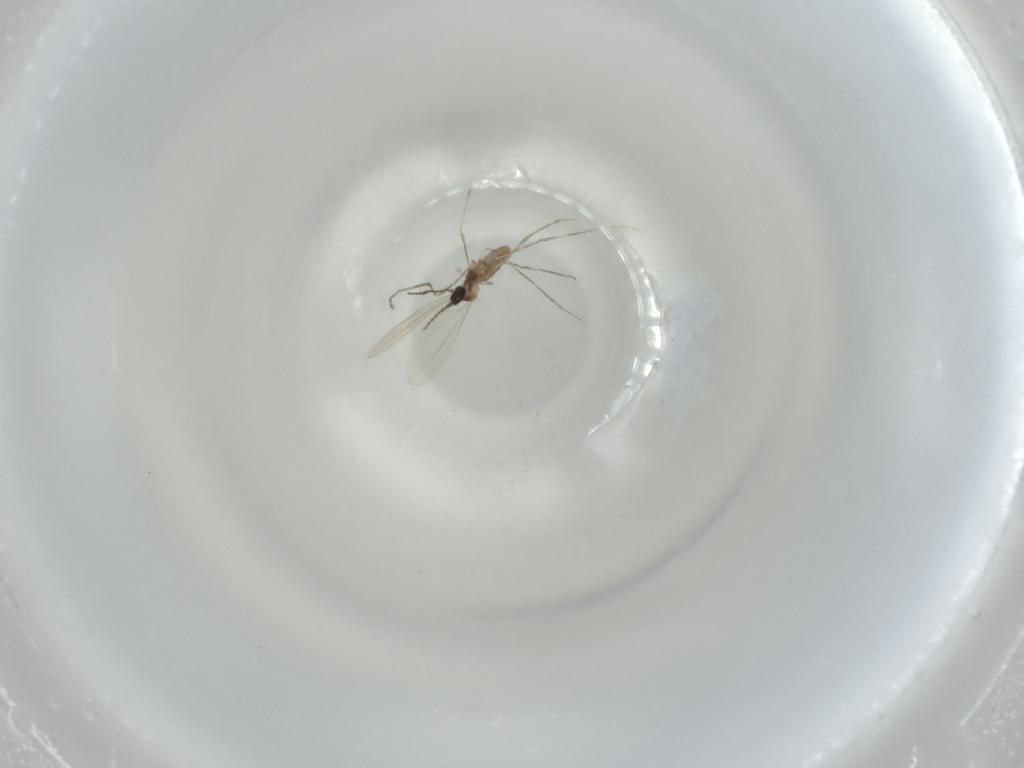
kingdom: Animalia
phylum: Arthropoda
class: Insecta
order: Diptera
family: Cecidomyiidae
